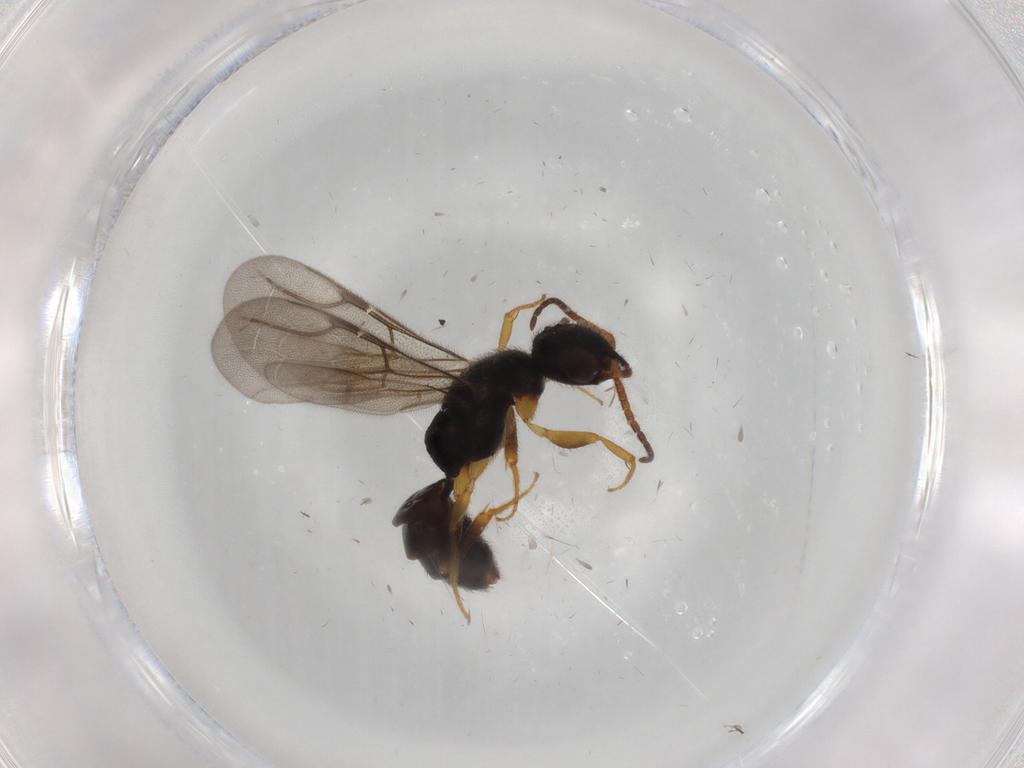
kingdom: Animalia
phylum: Arthropoda
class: Insecta
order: Hymenoptera
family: Bethylidae
